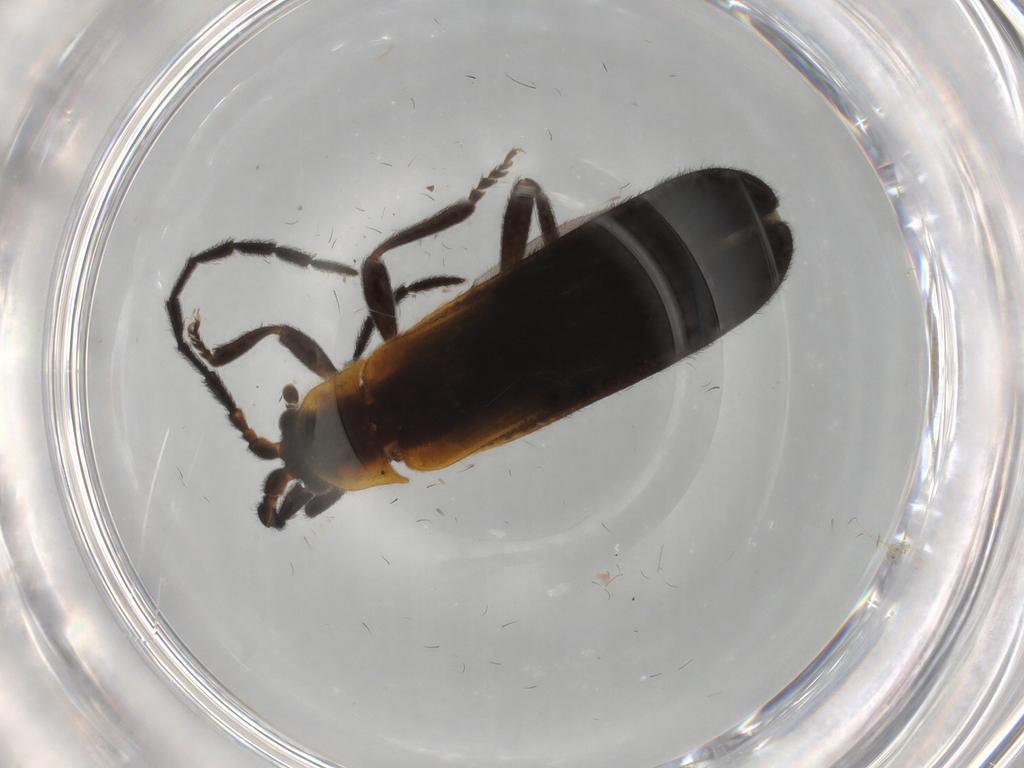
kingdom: Animalia
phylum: Arthropoda
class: Insecta
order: Coleoptera
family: Lycidae
